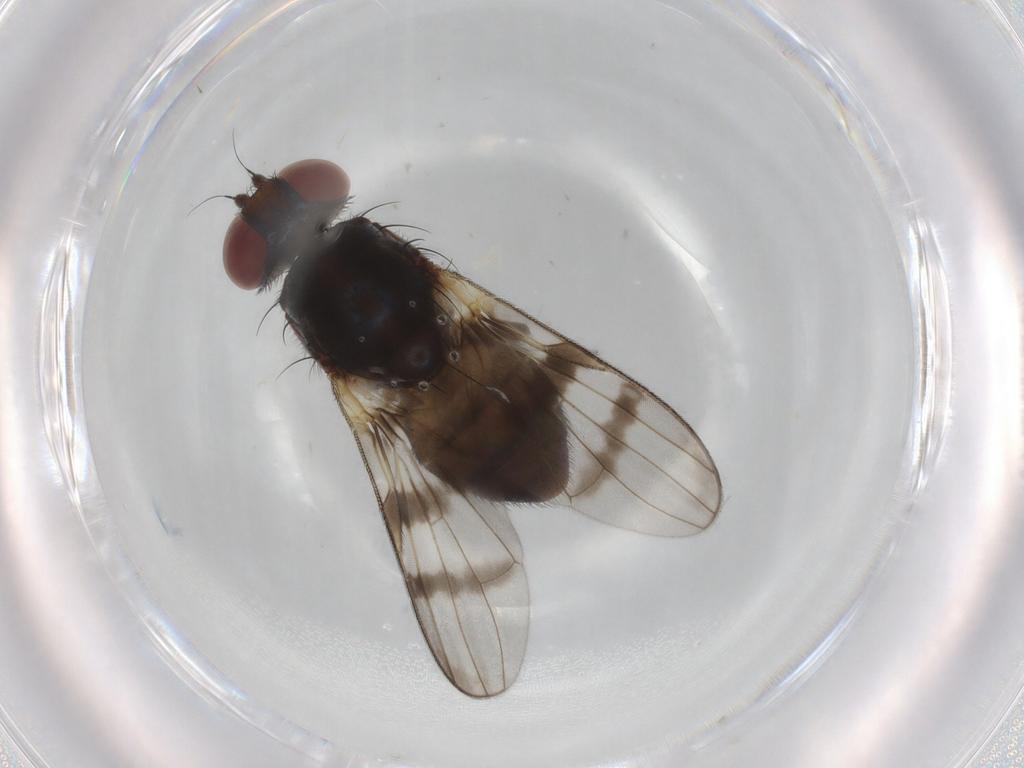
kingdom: Animalia
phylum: Arthropoda
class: Insecta
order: Diptera
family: Ulidiidae
